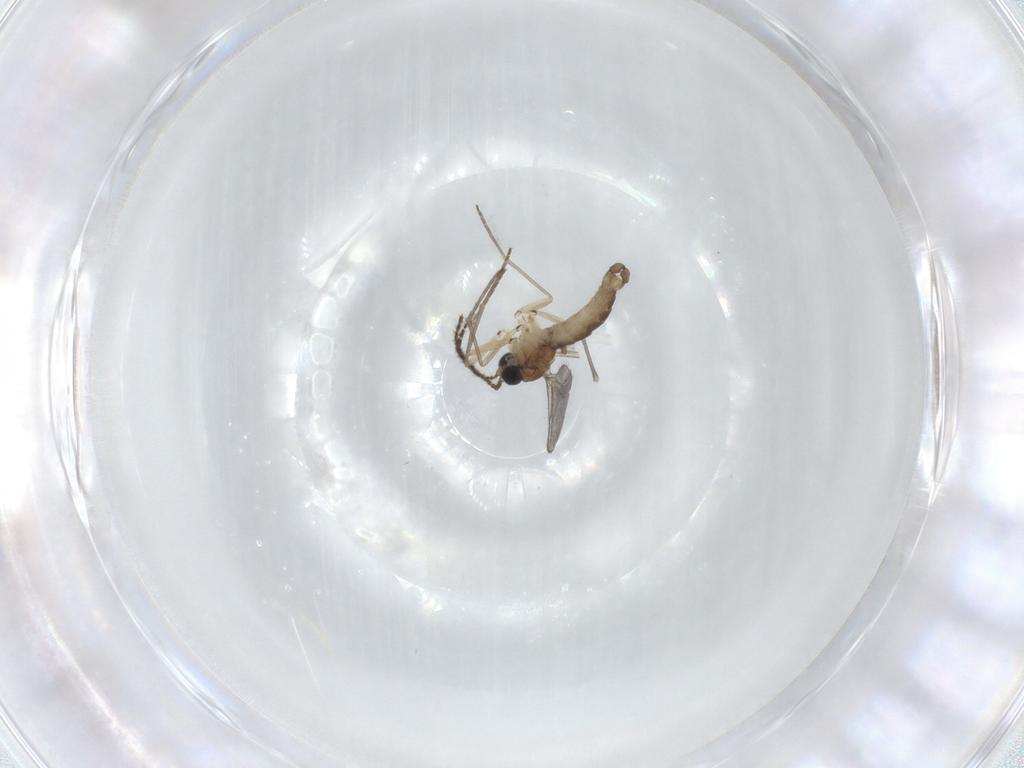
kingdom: Animalia
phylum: Arthropoda
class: Insecta
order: Diptera
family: Sciaridae
